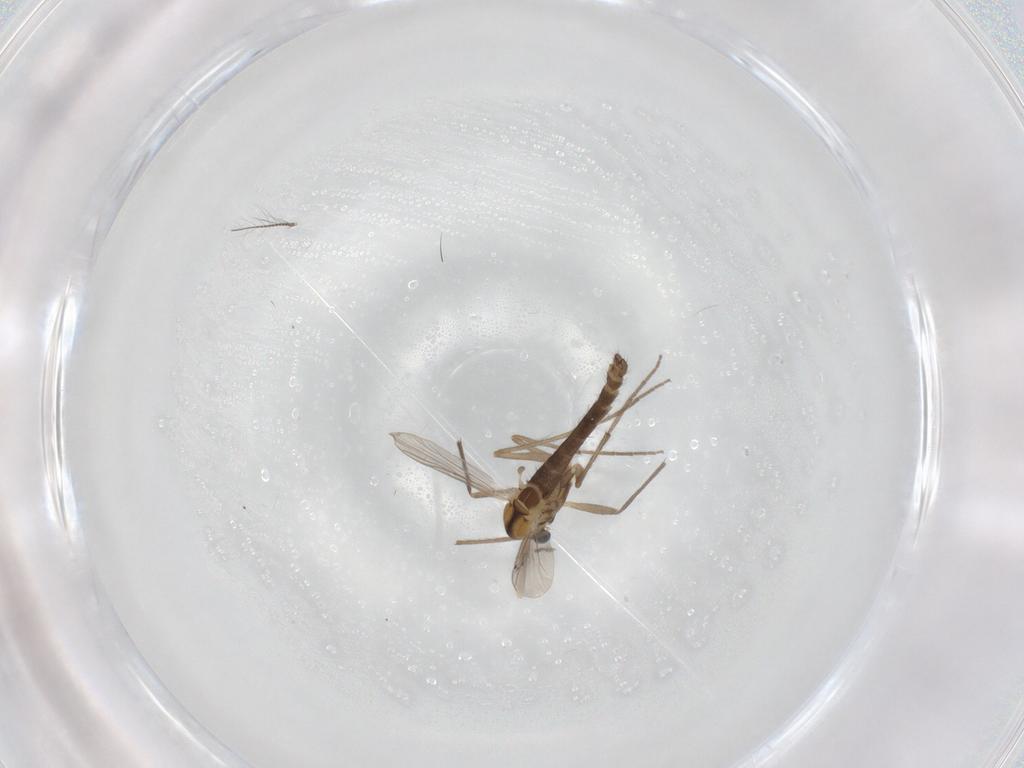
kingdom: Animalia
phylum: Arthropoda
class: Insecta
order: Diptera
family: Chironomidae
